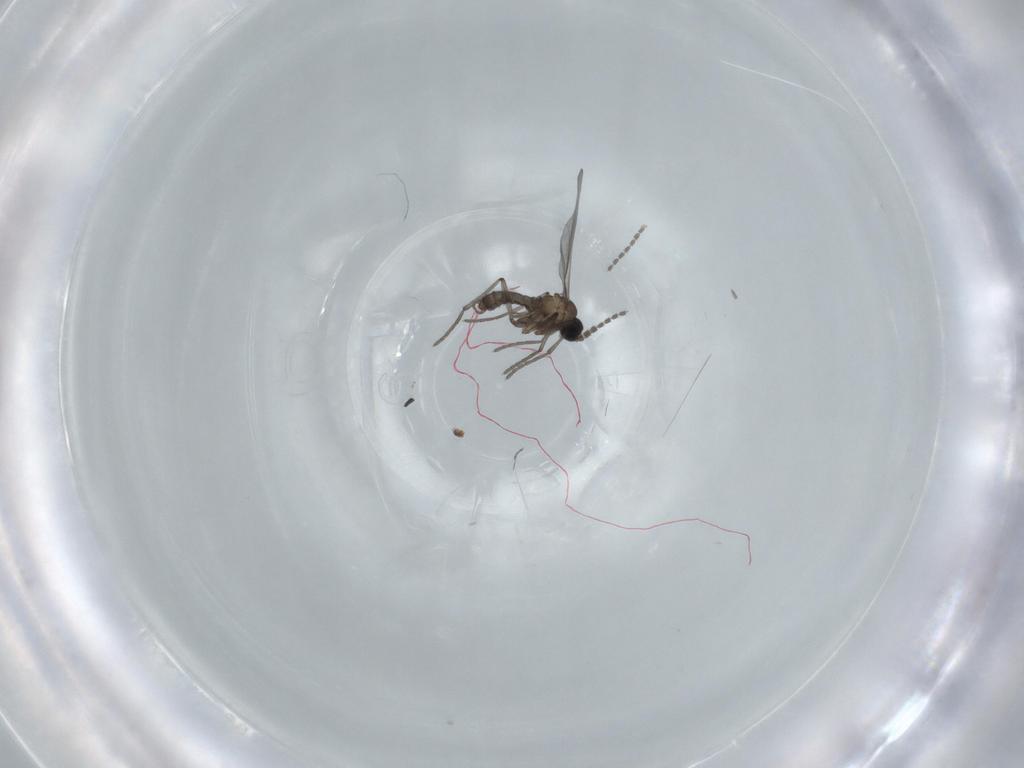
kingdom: Animalia
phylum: Arthropoda
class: Insecta
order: Diptera
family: Sciaridae
